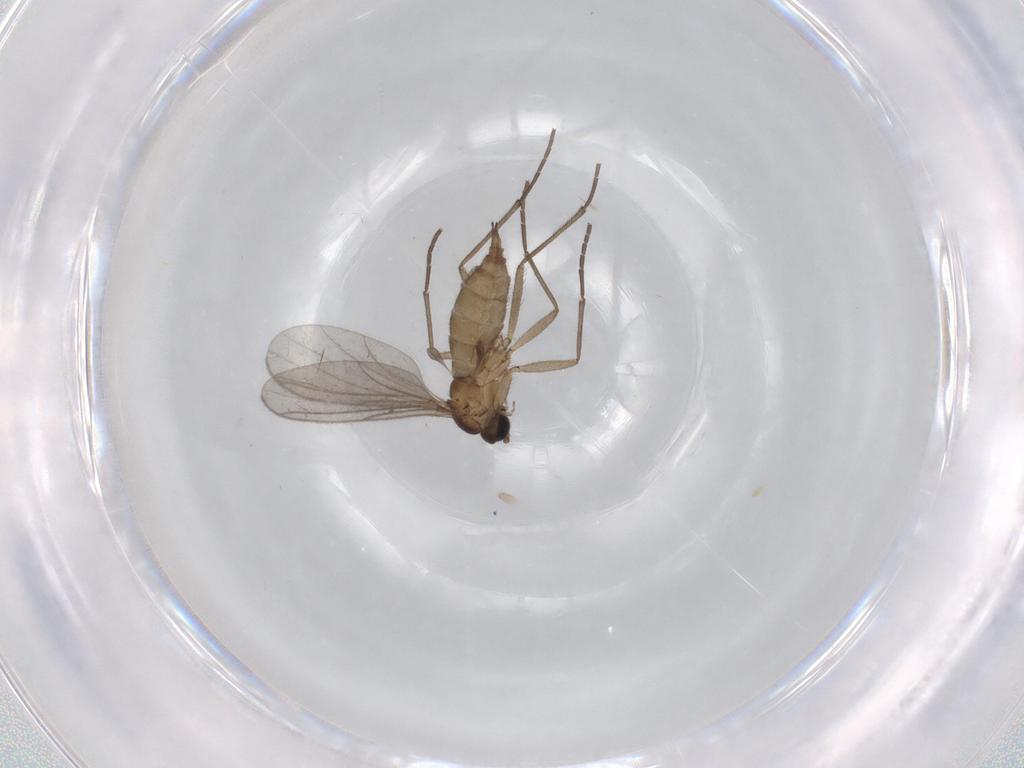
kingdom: Animalia
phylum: Arthropoda
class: Insecta
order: Diptera
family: Sciaridae
